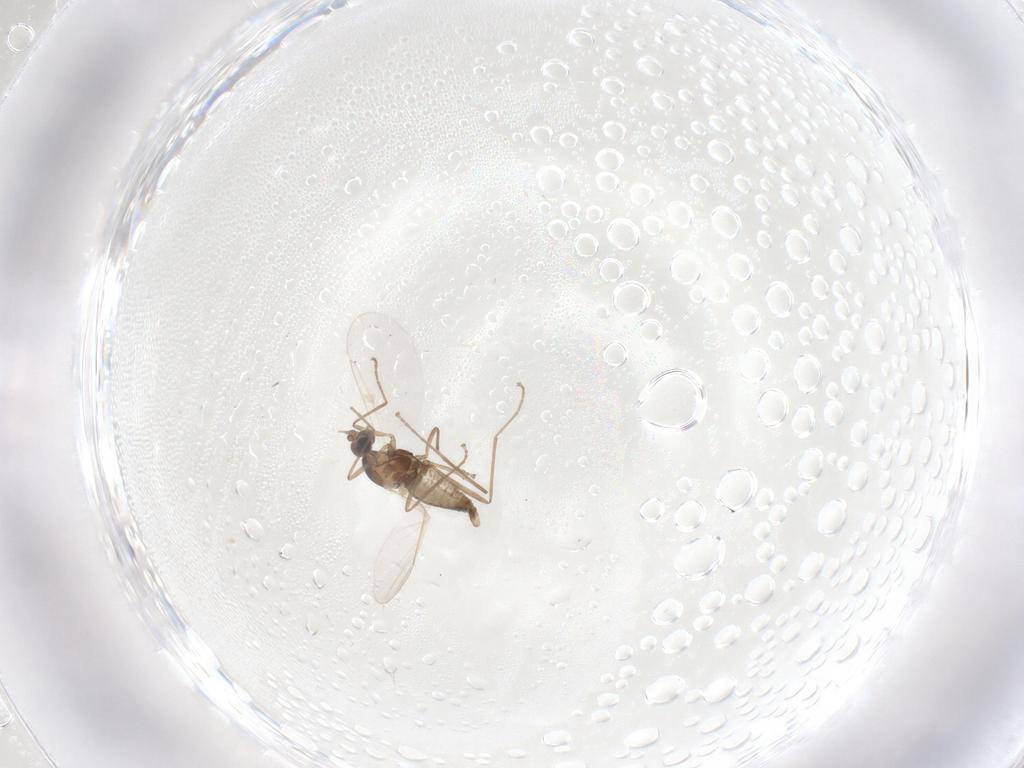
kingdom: Animalia
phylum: Arthropoda
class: Insecta
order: Diptera
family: Cecidomyiidae
